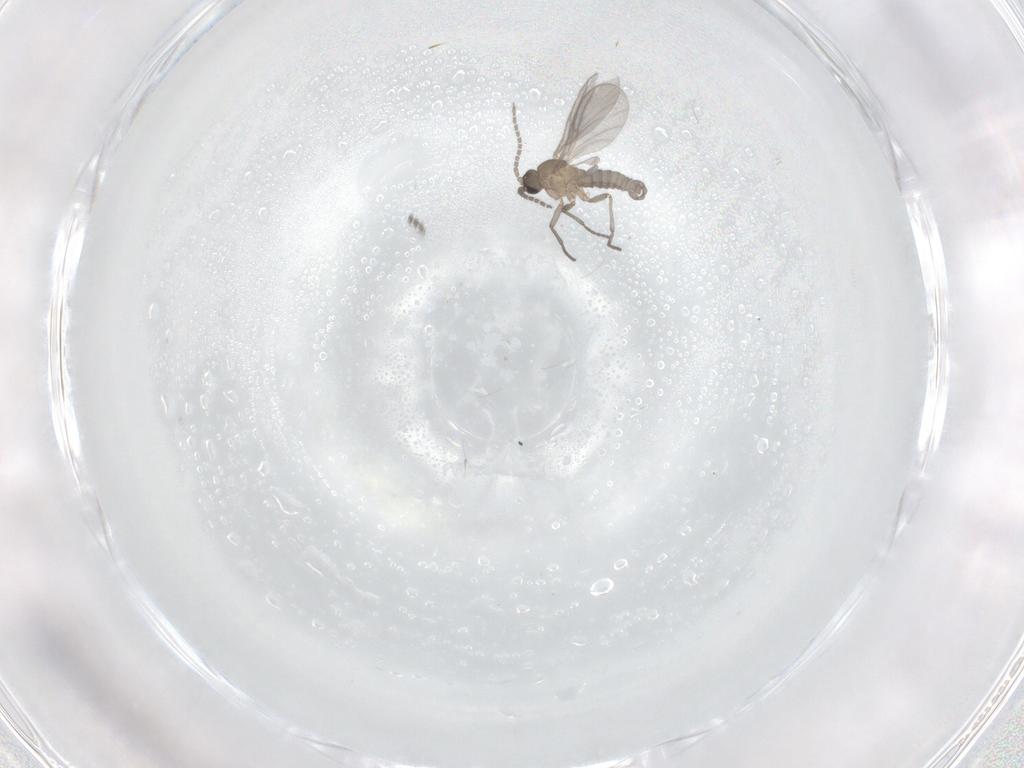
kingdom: Animalia
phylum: Arthropoda
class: Insecta
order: Diptera
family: Sciaridae
